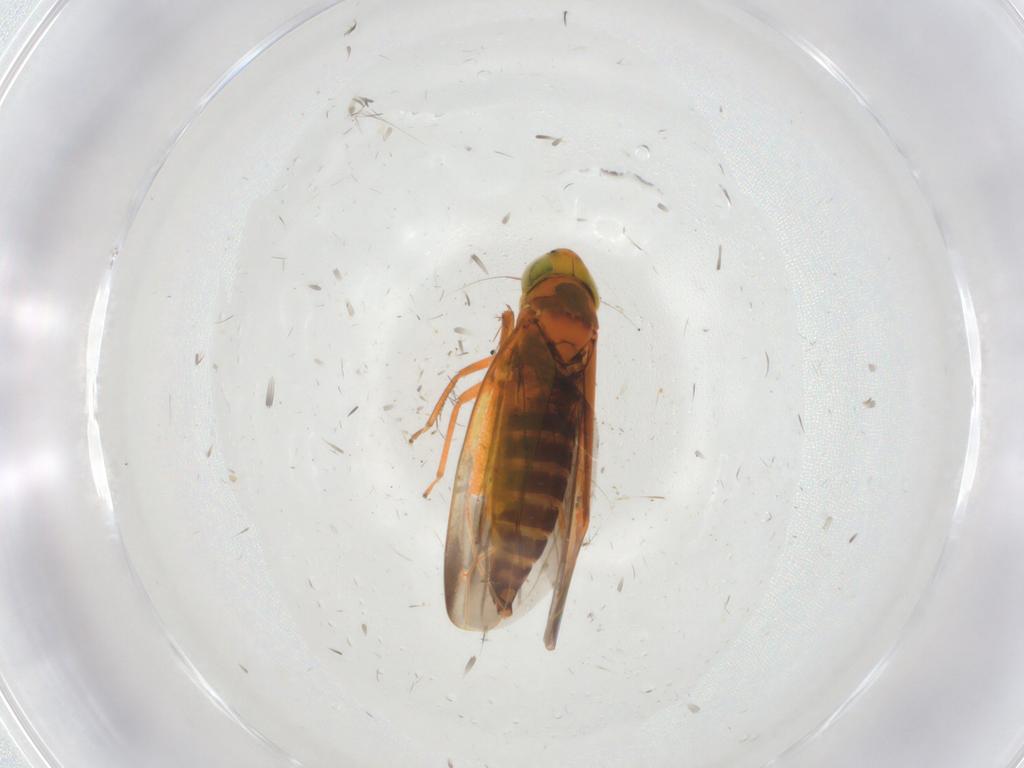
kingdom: Animalia
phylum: Arthropoda
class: Insecta
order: Hemiptera
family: Cicadellidae
